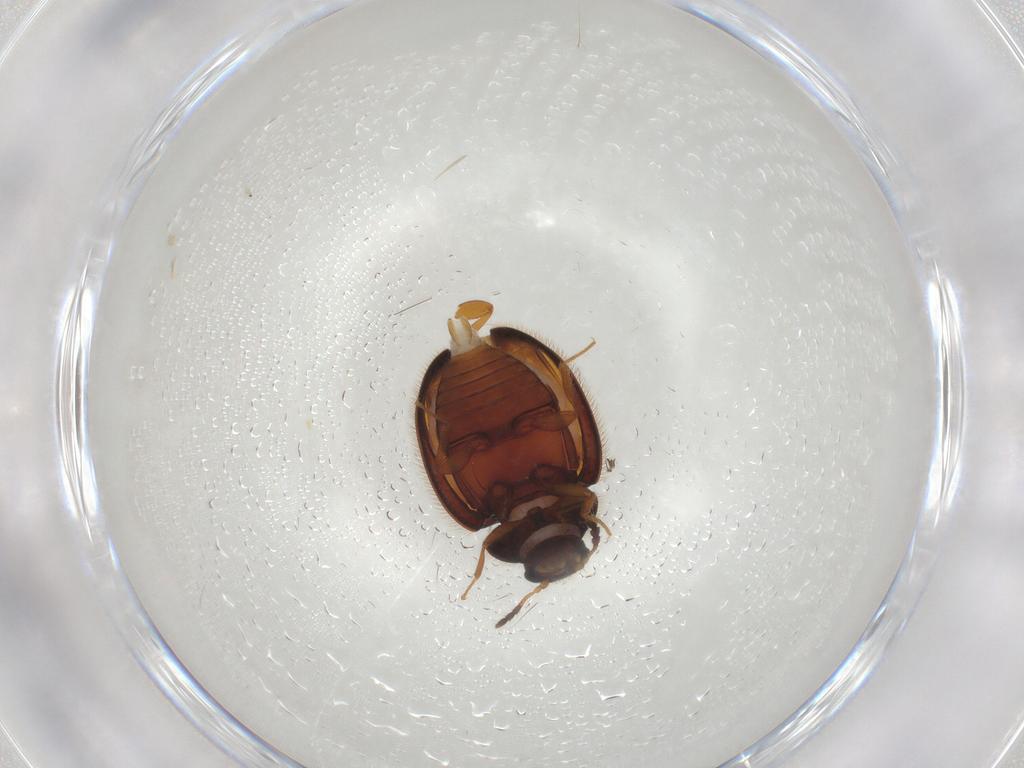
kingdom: Animalia
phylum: Arthropoda
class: Insecta
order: Coleoptera
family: Anamorphidae
